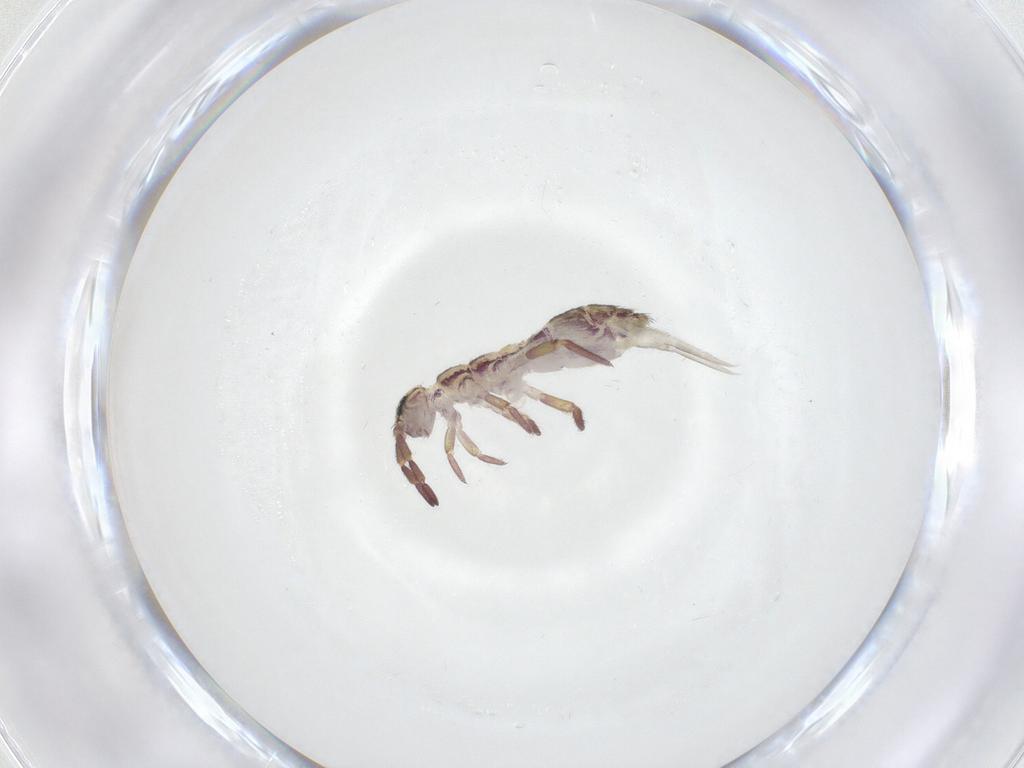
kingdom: Animalia
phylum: Arthropoda
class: Collembola
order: Entomobryomorpha
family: Isotomidae
